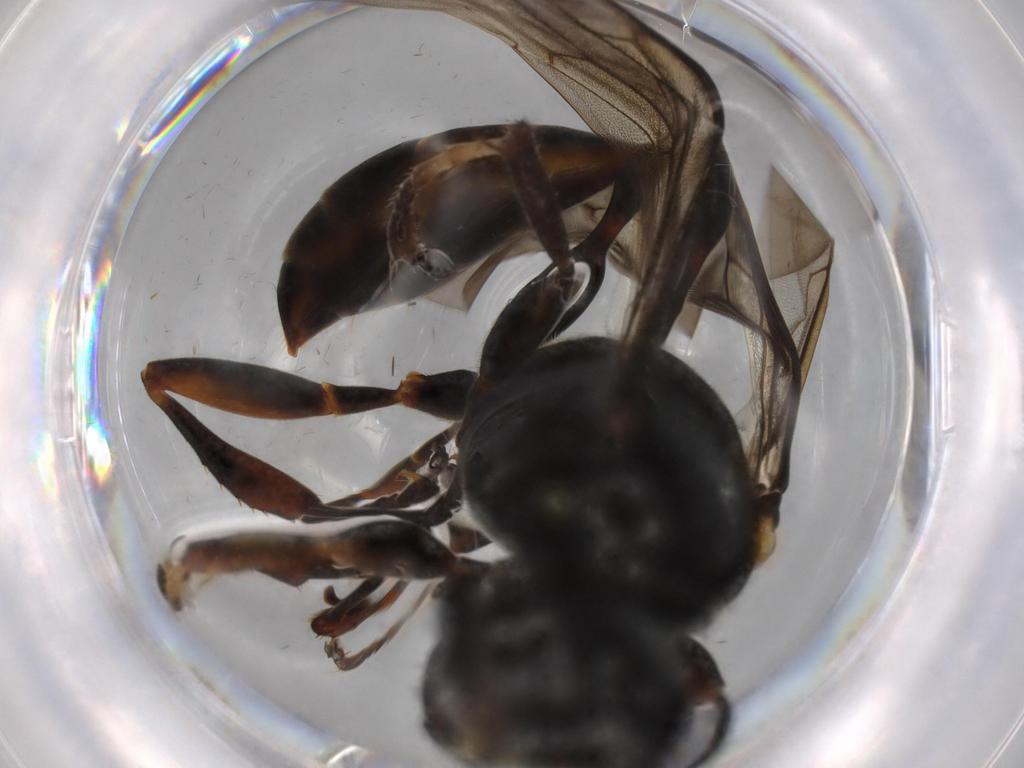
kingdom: Animalia
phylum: Arthropoda
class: Insecta
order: Hymenoptera
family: Crabronidae
